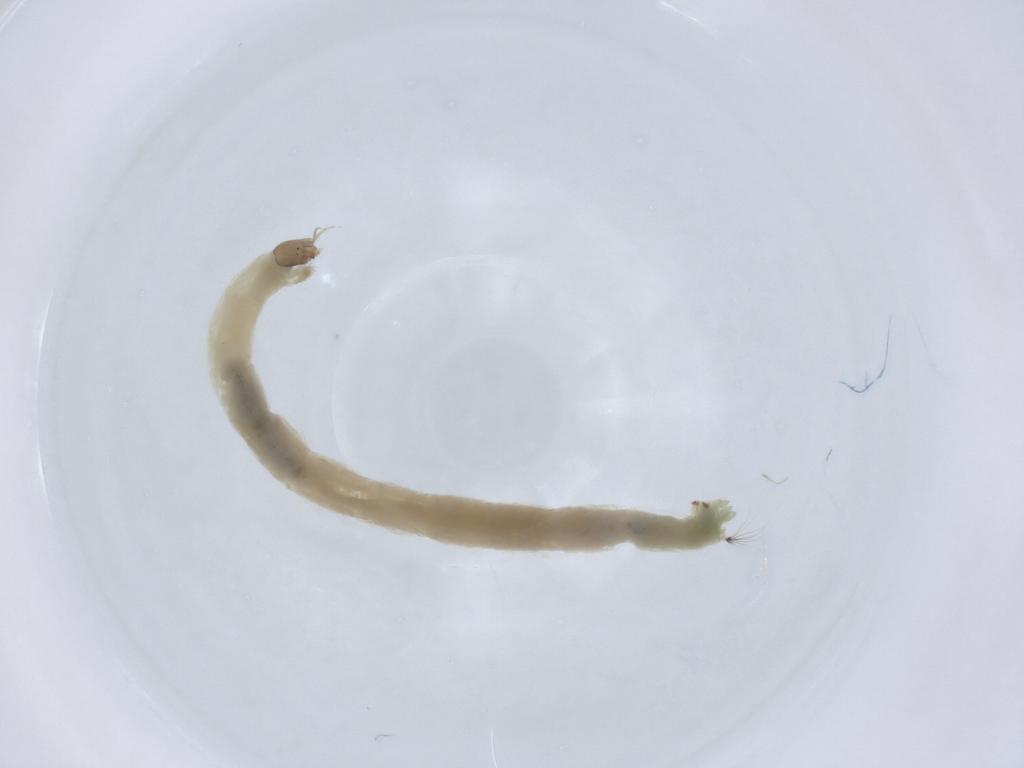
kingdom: Animalia
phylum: Arthropoda
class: Insecta
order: Diptera
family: Chironomidae
